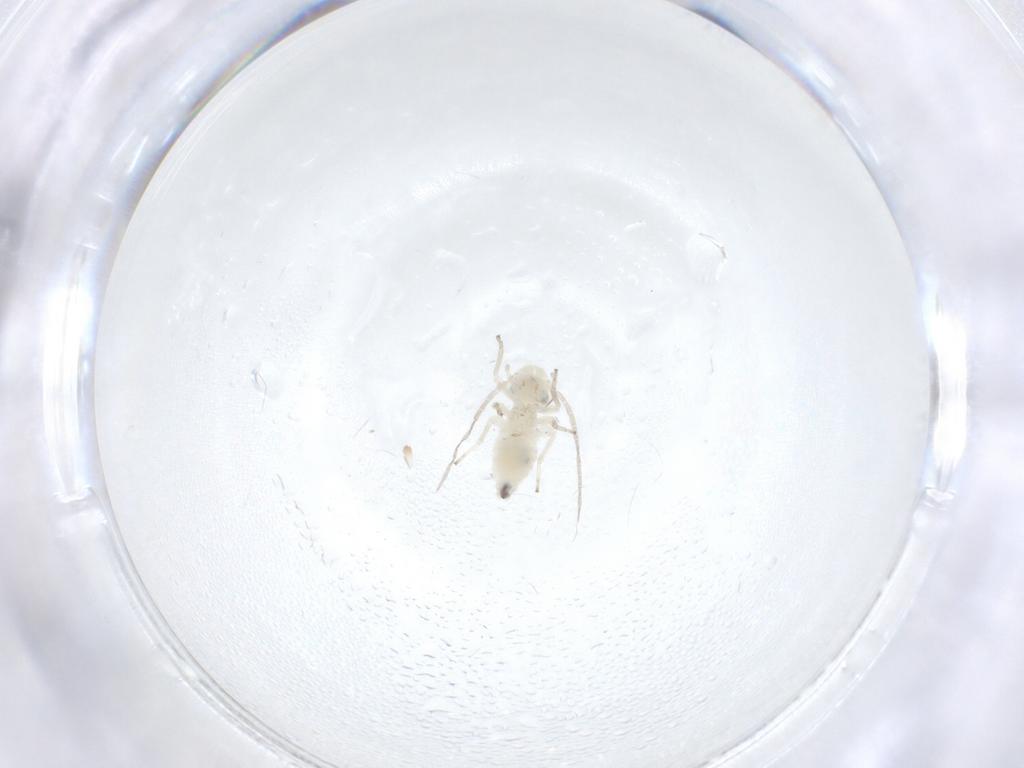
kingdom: Animalia
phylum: Arthropoda
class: Insecta
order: Psocodea
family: Caeciliusidae
